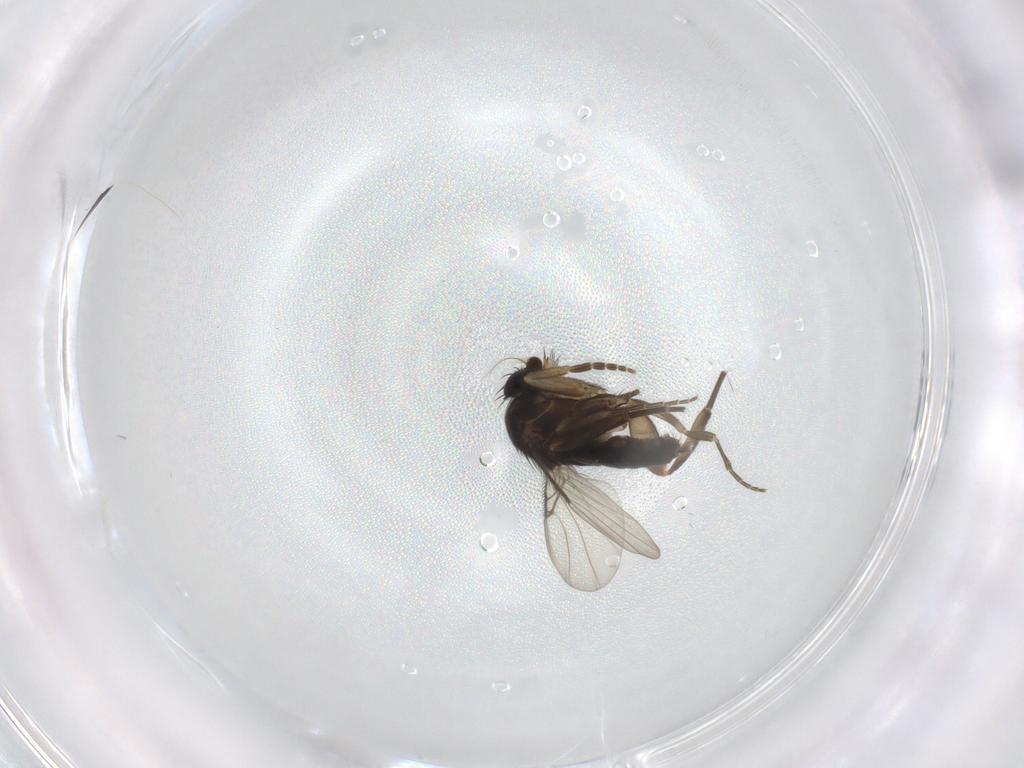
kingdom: Animalia
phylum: Arthropoda
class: Insecta
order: Diptera
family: Phoridae
